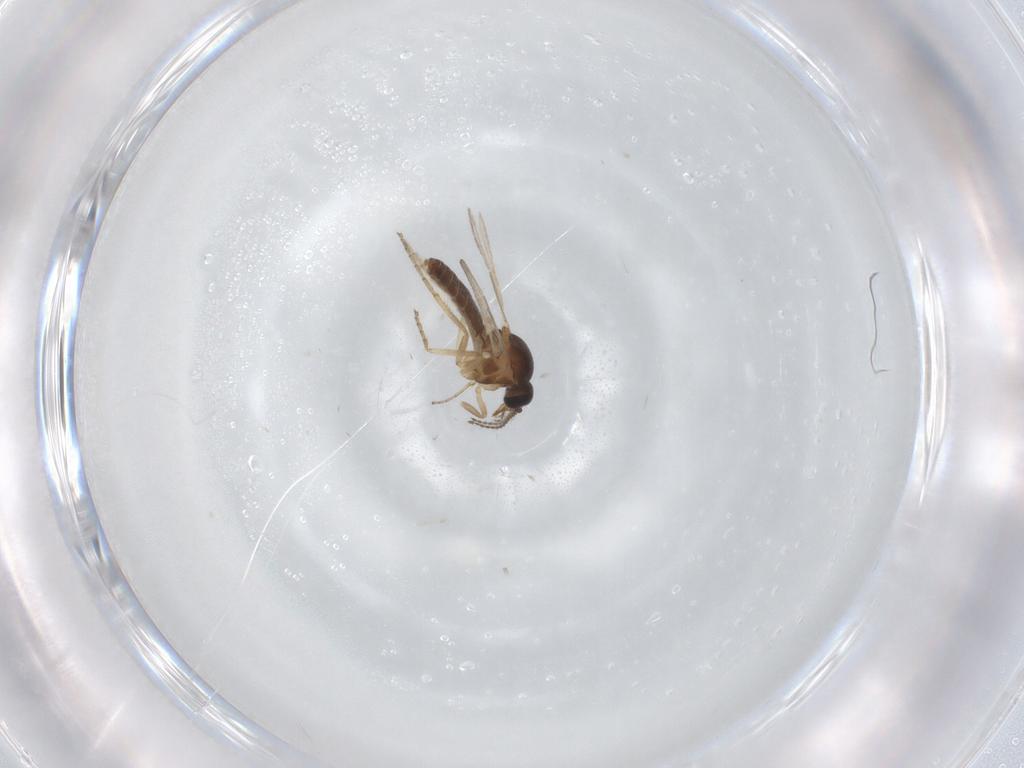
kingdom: Animalia
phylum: Arthropoda
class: Insecta
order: Diptera
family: Ceratopogonidae
